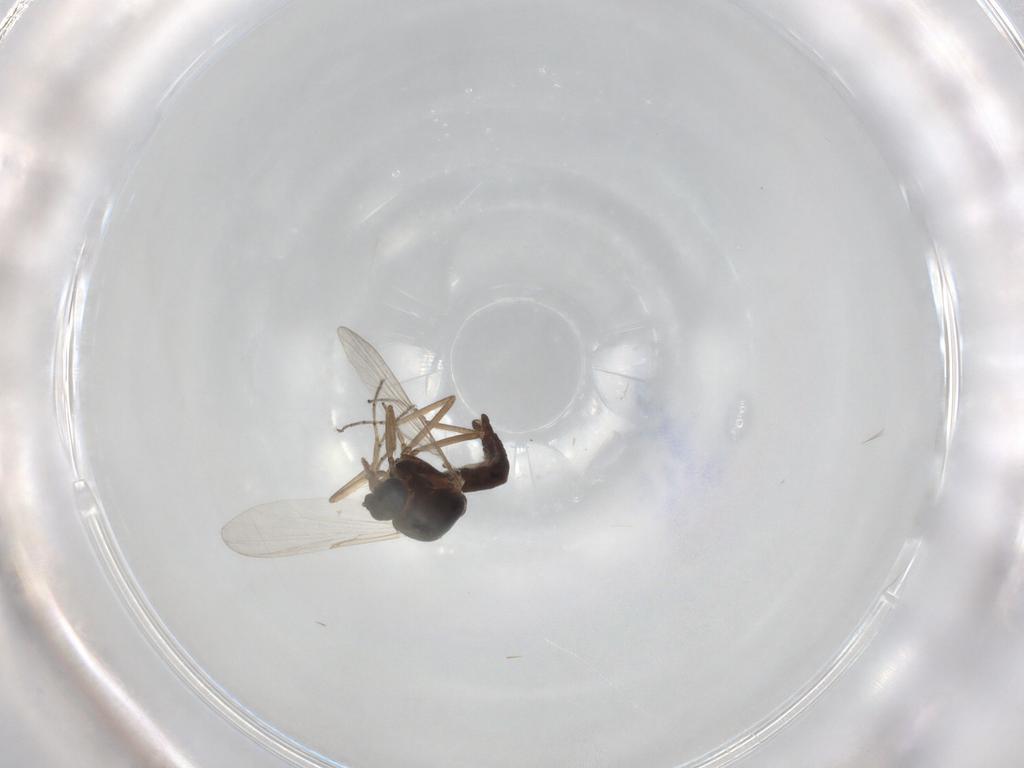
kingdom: Animalia
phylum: Arthropoda
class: Insecta
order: Diptera
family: Ceratopogonidae
